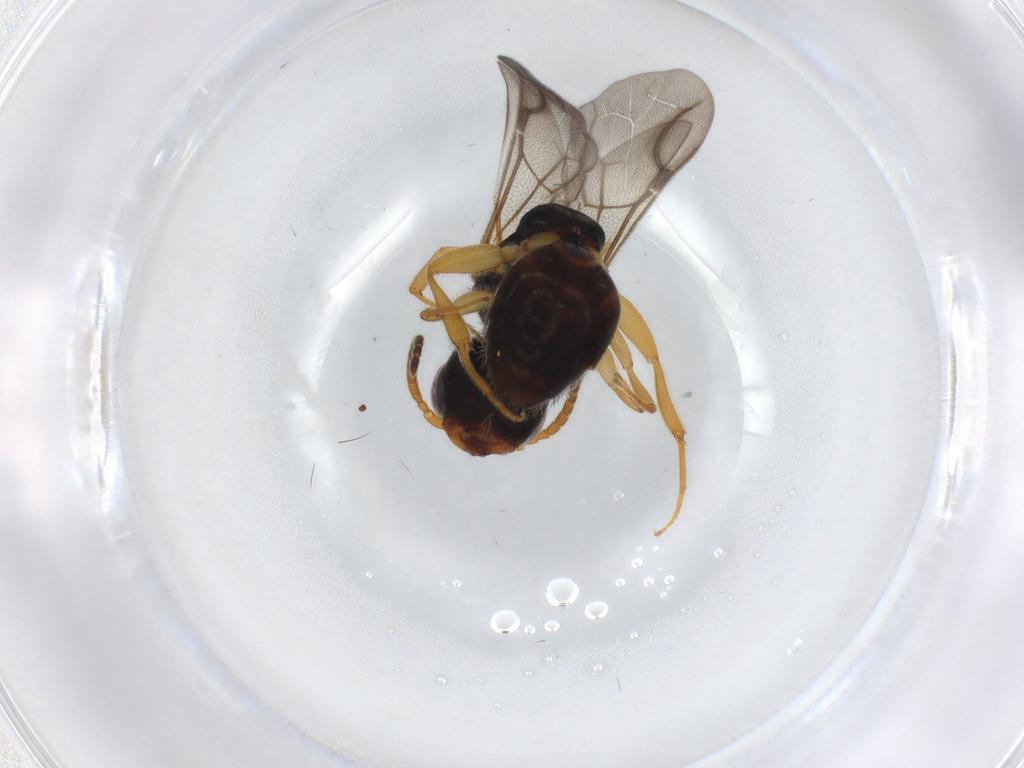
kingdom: Animalia
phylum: Arthropoda
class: Insecta
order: Hymenoptera
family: Bethylidae
